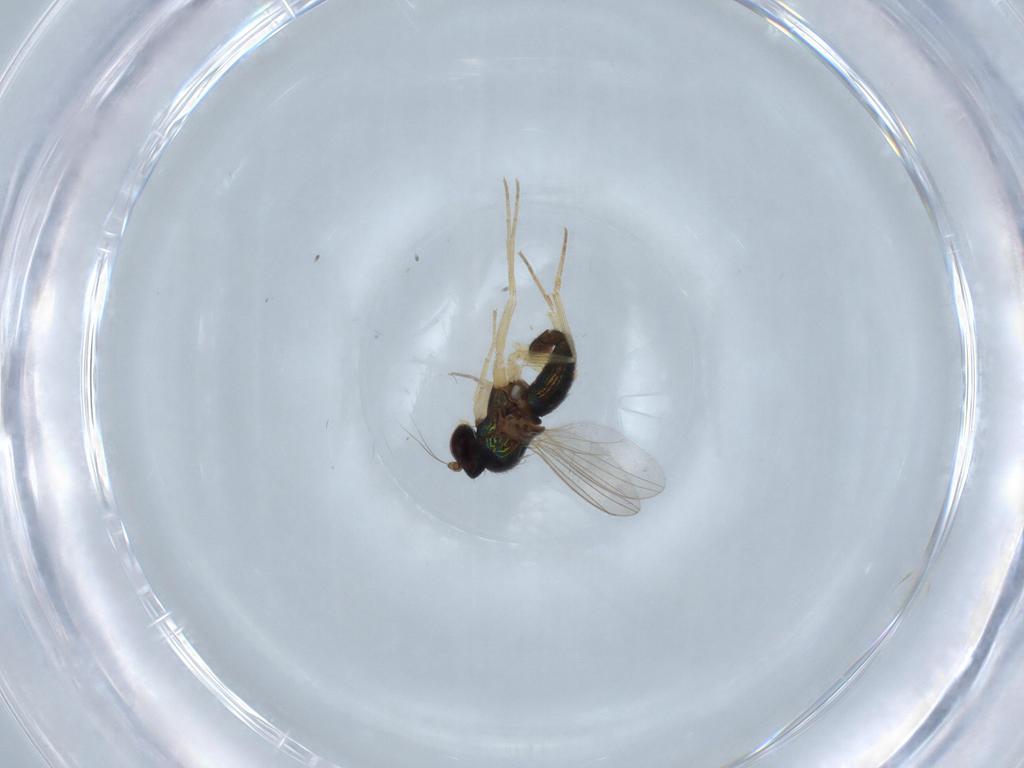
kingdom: Animalia
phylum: Arthropoda
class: Insecta
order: Diptera
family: Dolichopodidae
